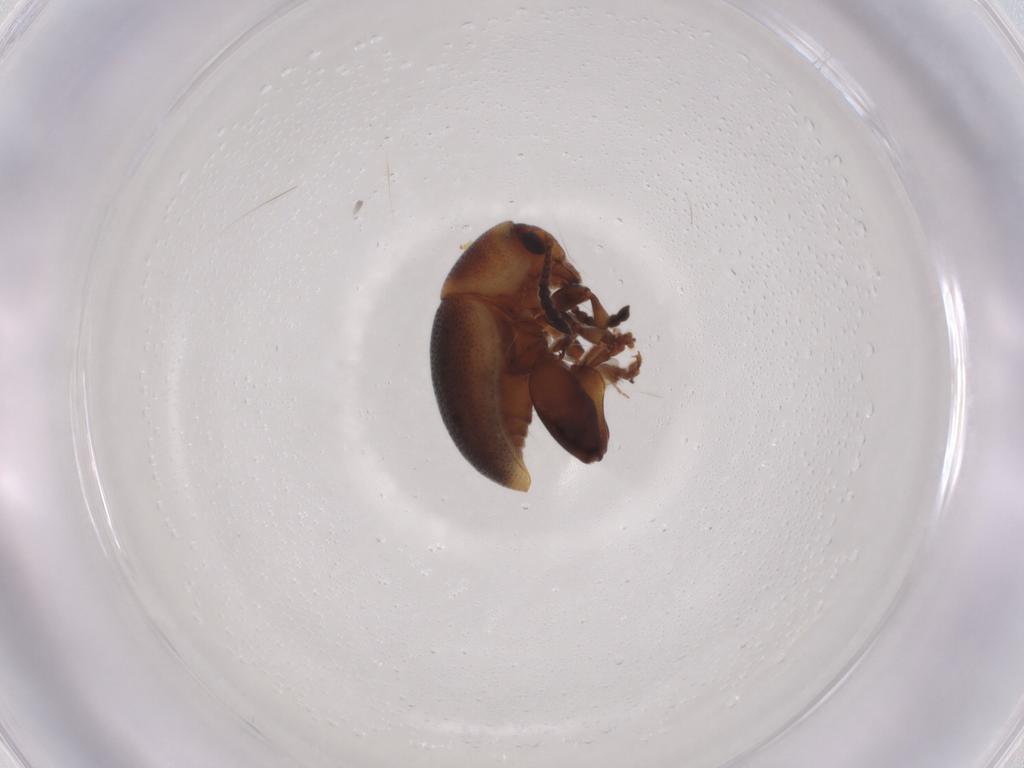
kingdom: Animalia
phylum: Arthropoda
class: Insecta
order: Coleoptera
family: Chrysomelidae
